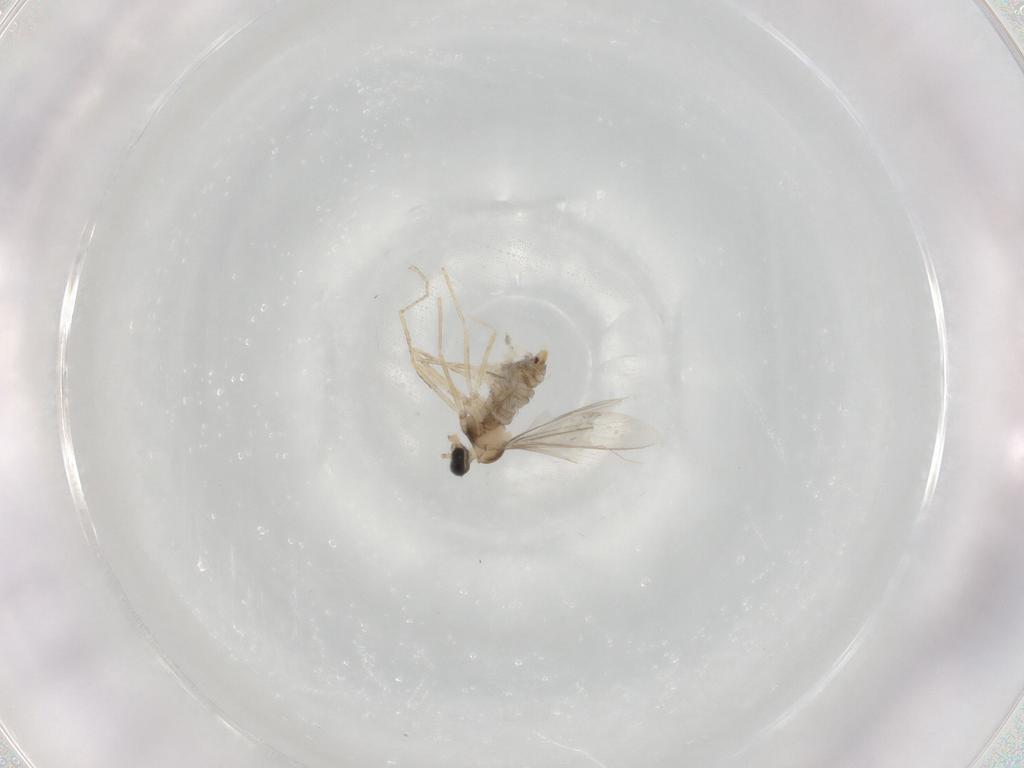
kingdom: Animalia
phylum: Arthropoda
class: Insecta
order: Diptera
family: Cecidomyiidae
